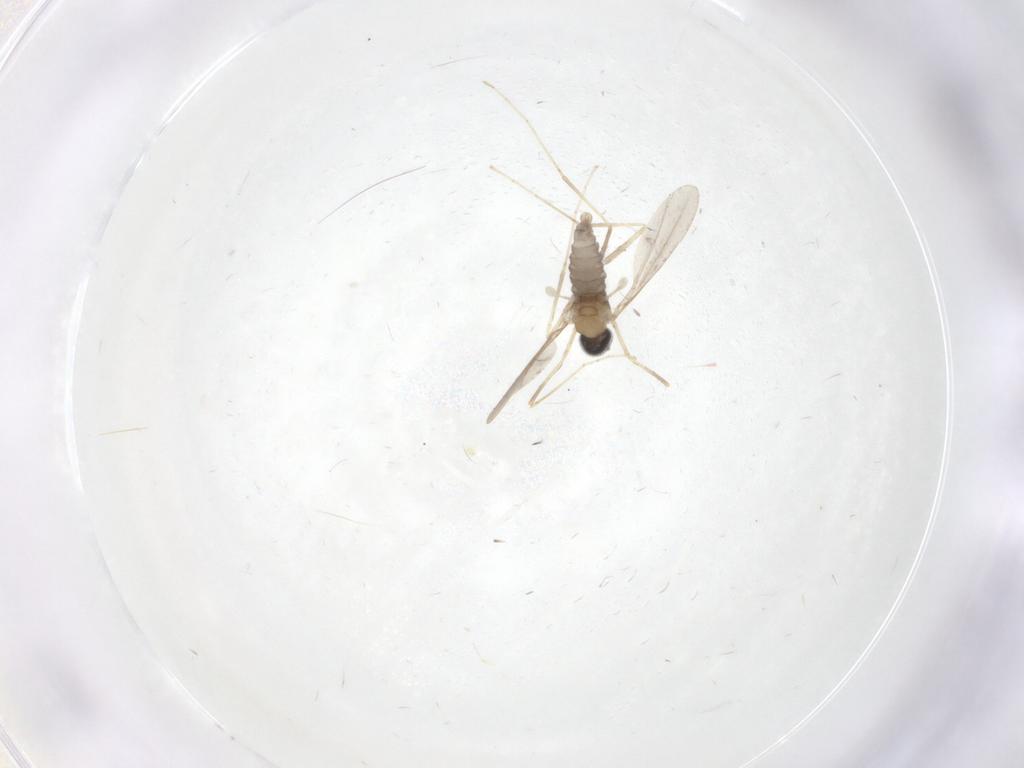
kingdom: Animalia
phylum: Arthropoda
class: Insecta
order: Diptera
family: Cecidomyiidae
